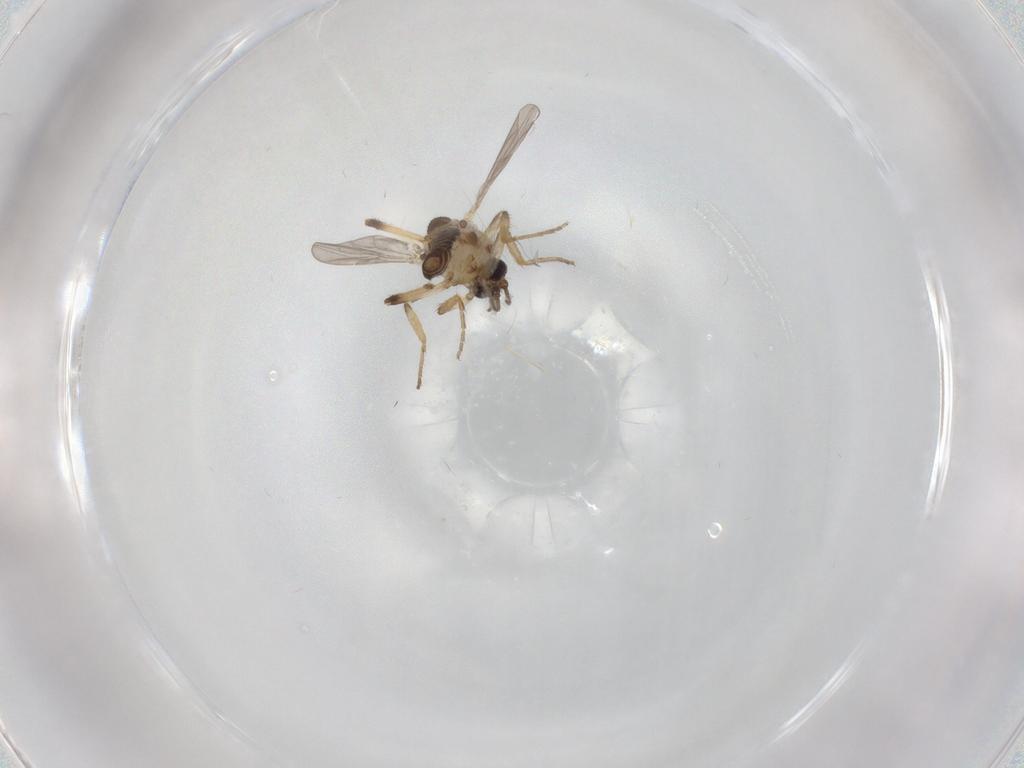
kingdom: Animalia
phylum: Arthropoda
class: Insecta
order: Diptera
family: Ceratopogonidae
